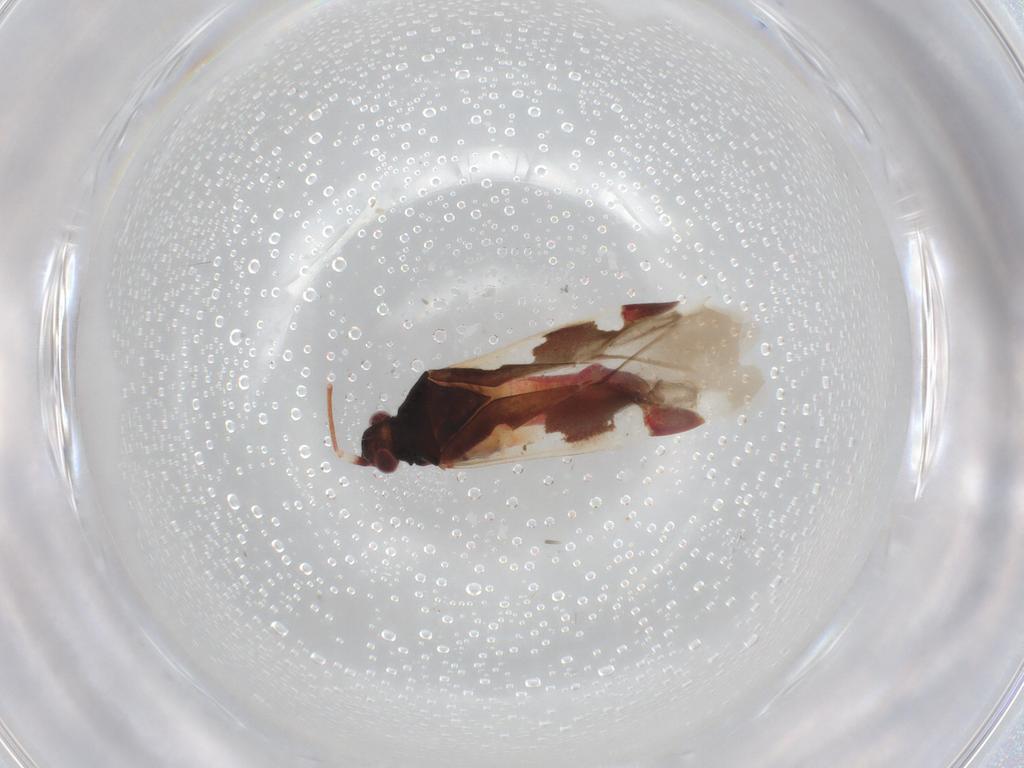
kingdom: Animalia
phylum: Arthropoda
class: Insecta
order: Hemiptera
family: Miridae
